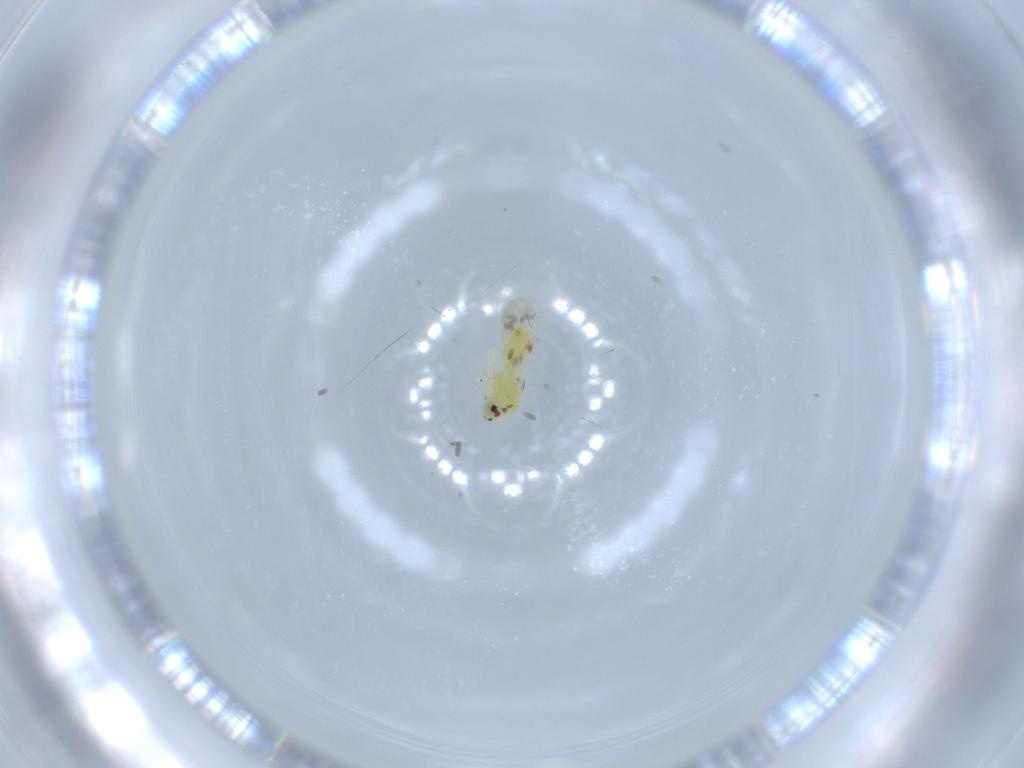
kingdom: Animalia
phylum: Arthropoda
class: Insecta
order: Hemiptera
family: Aleyrodidae
